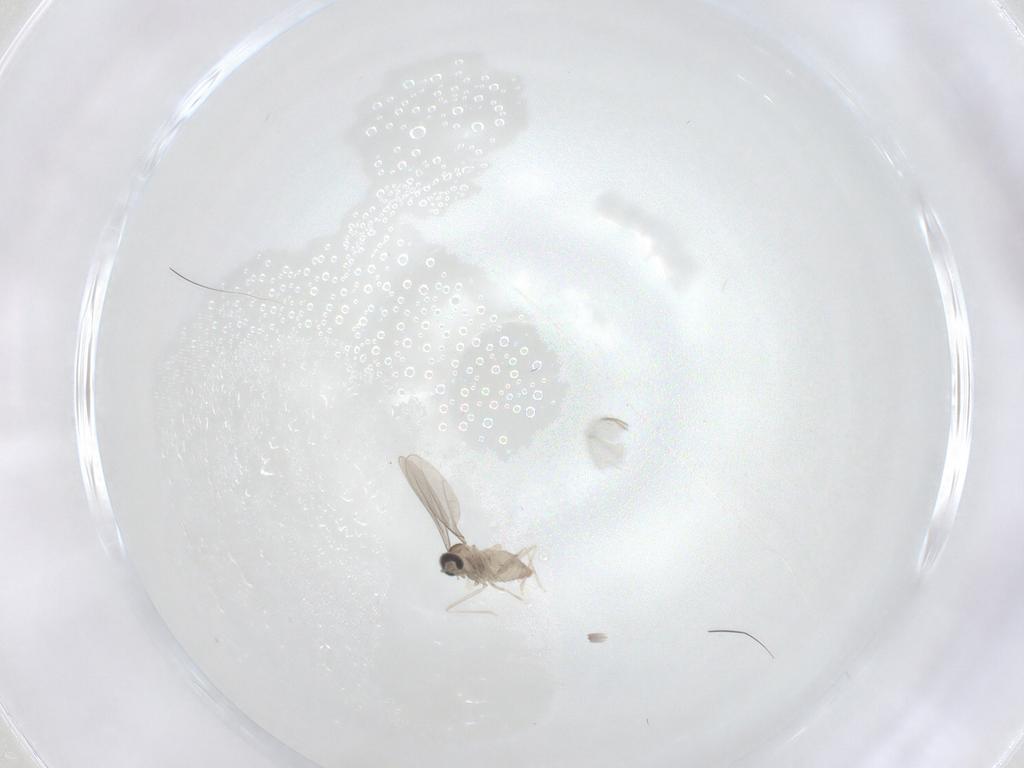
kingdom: Animalia
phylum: Arthropoda
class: Insecta
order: Diptera
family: Cecidomyiidae
